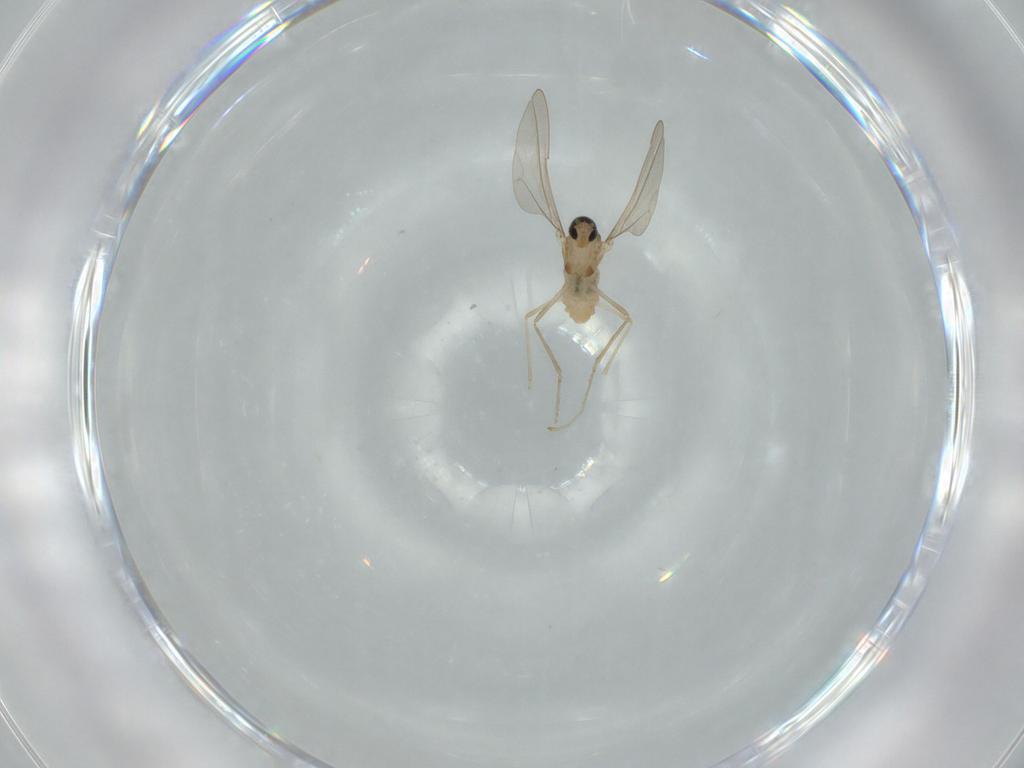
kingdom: Animalia
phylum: Arthropoda
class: Insecta
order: Diptera
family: Cecidomyiidae
